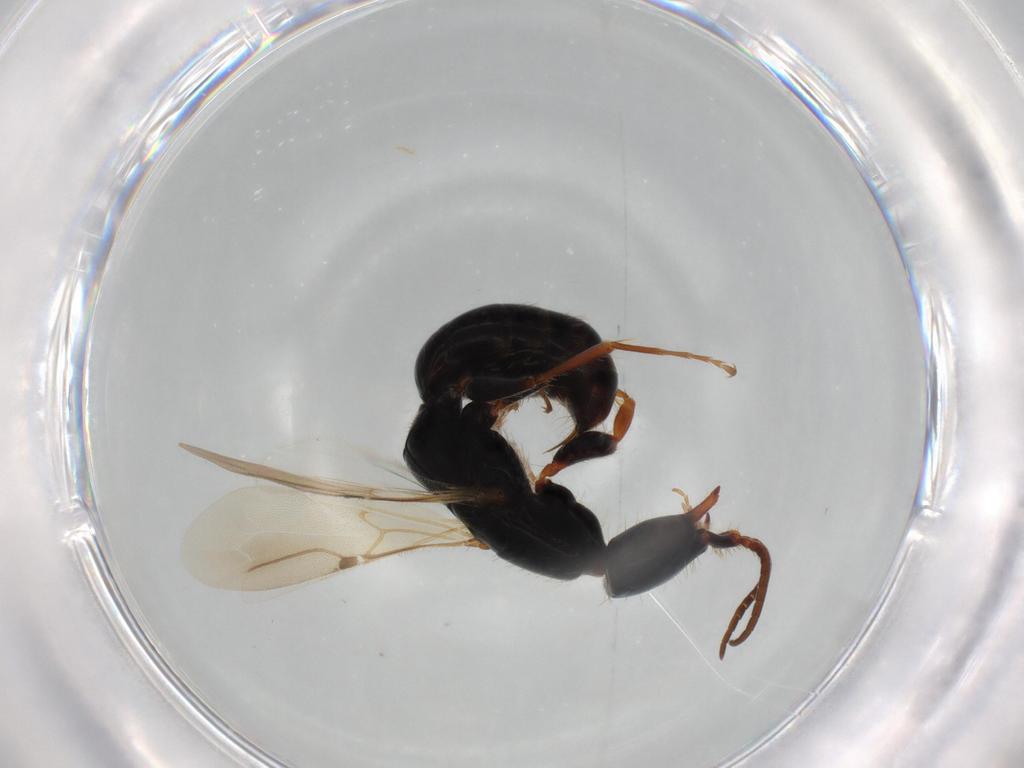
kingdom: Animalia
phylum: Arthropoda
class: Insecta
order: Hymenoptera
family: Bethylidae
